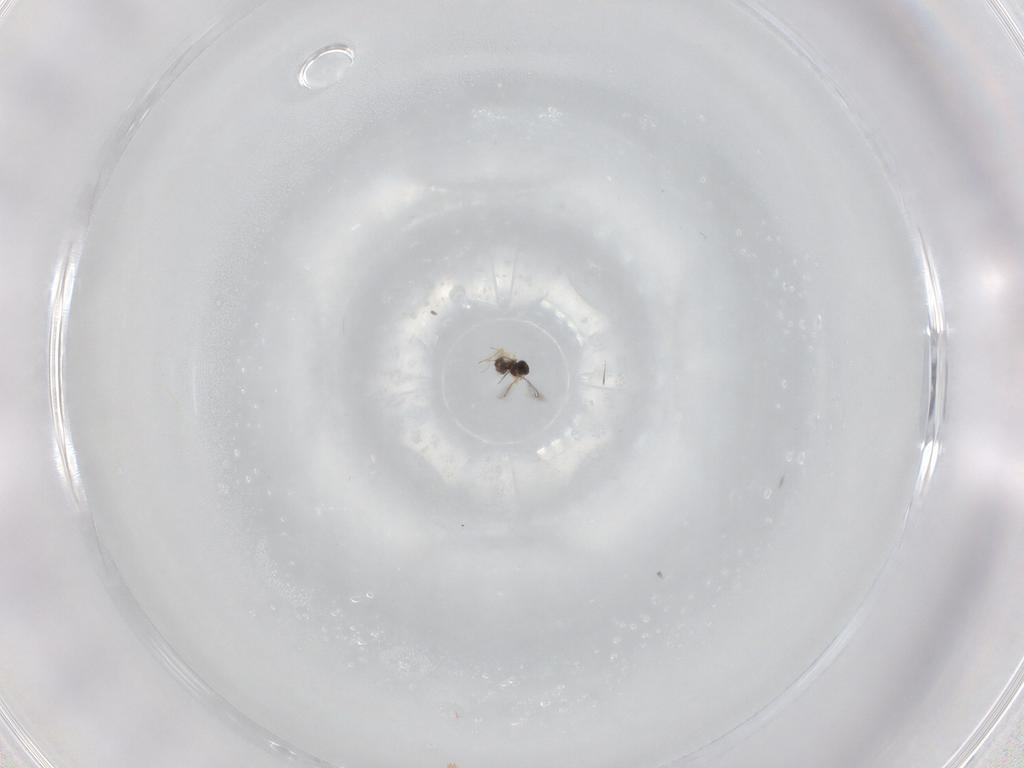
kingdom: Animalia
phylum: Arthropoda
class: Insecta
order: Hymenoptera
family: Mymaridae
